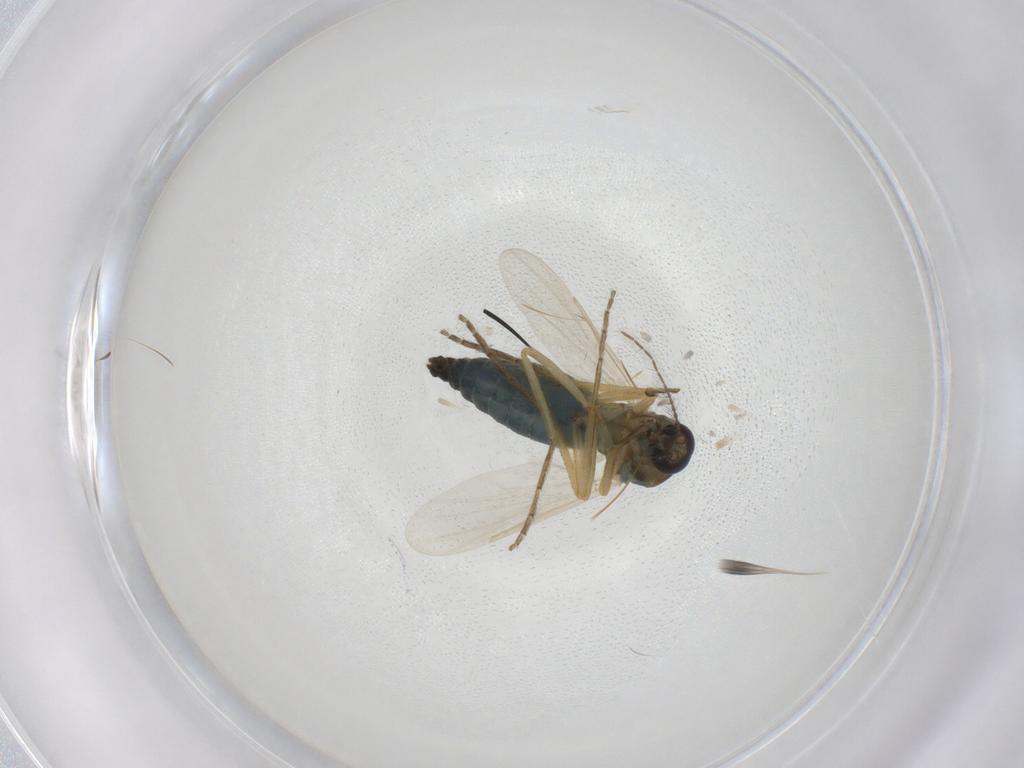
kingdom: Animalia
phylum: Arthropoda
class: Insecta
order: Diptera
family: Ceratopogonidae
